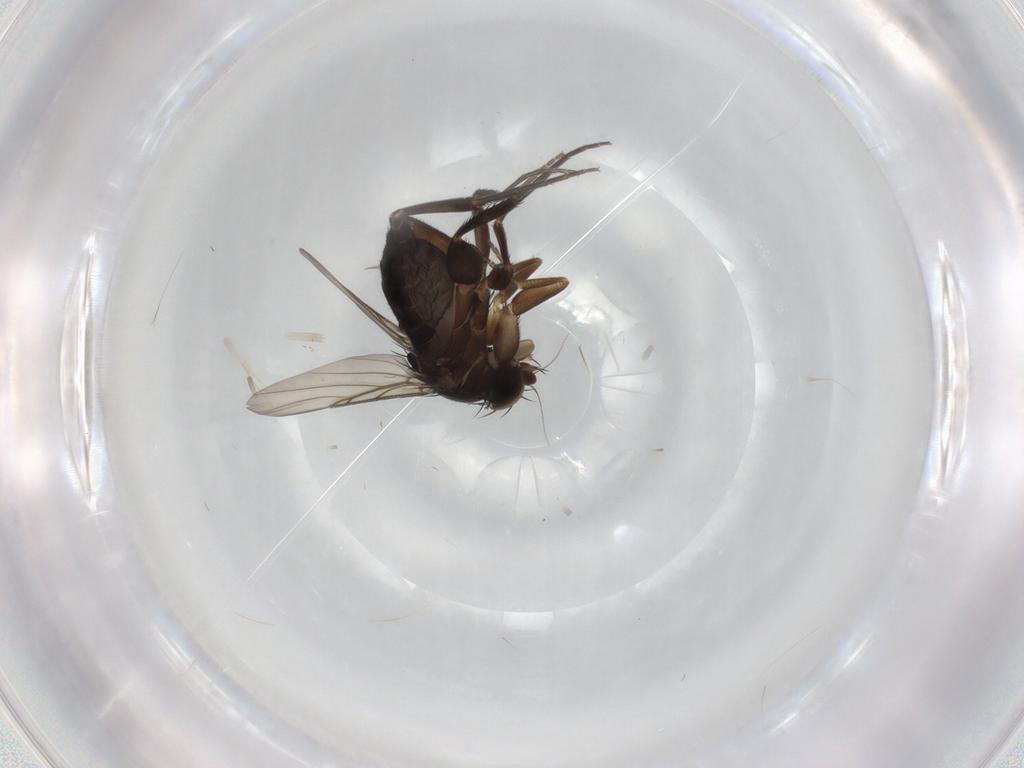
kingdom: Animalia
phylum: Arthropoda
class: Insecta
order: Diptera
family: Phoridae
